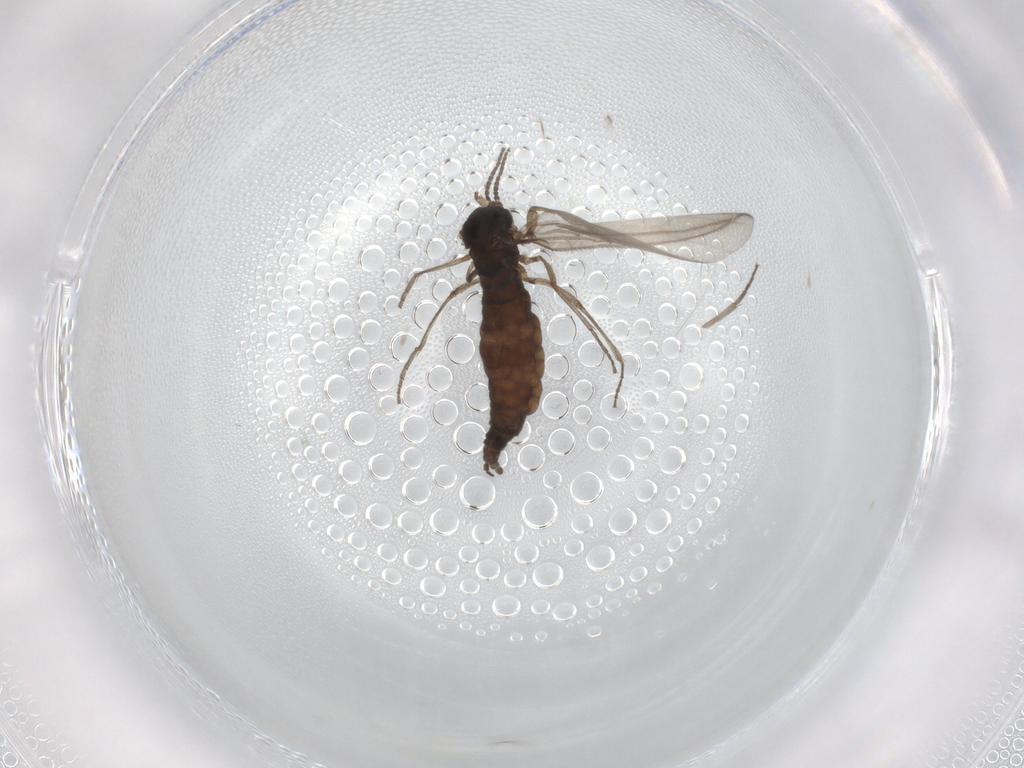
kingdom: Animalia
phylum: Arthropoda
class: Insecta
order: Diptera
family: Sciaridae
